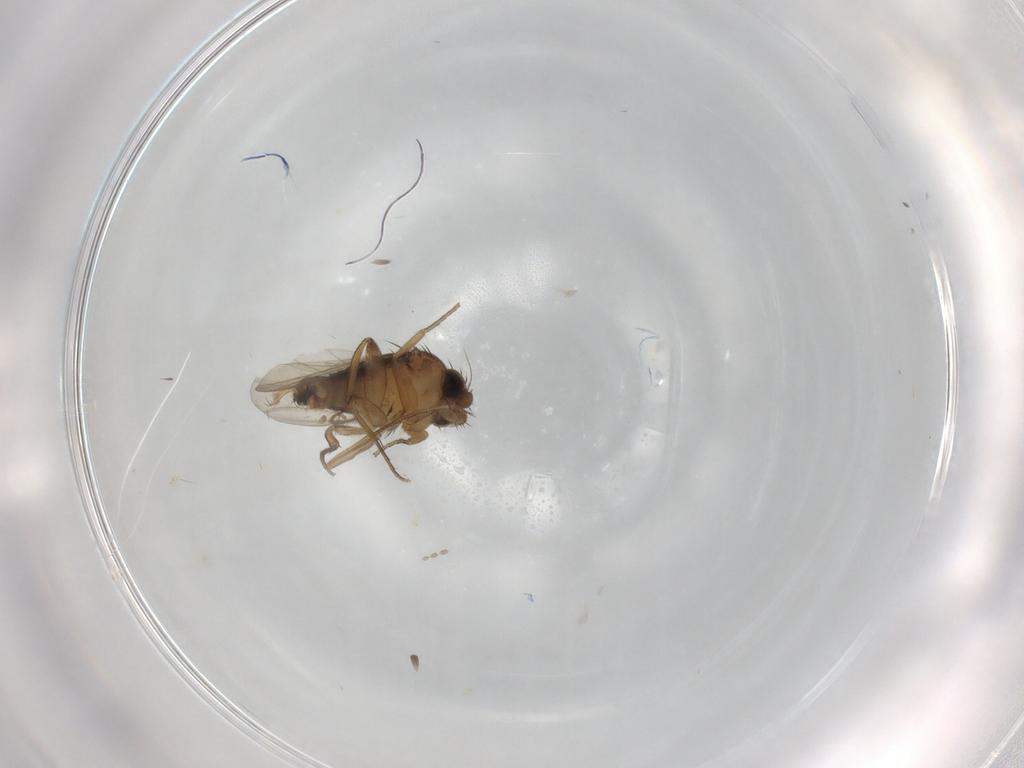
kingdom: Animalia
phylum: Arthropoda
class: Insecta
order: Diptera
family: Phoridae
